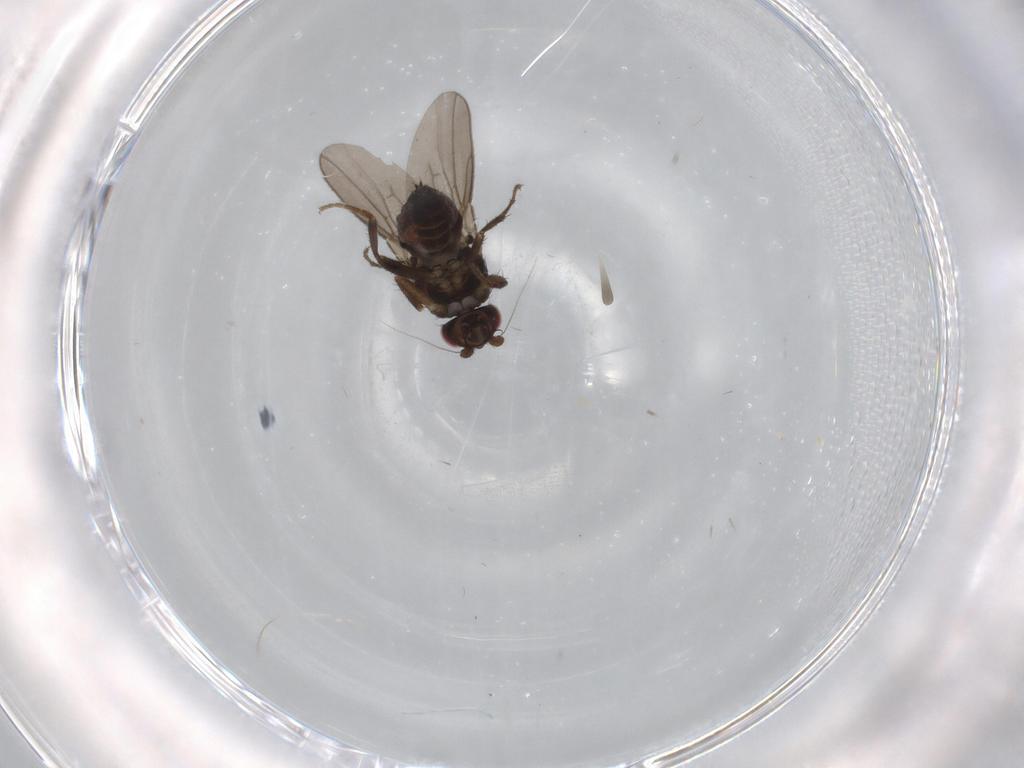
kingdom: Animalia
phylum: Arthropoda
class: Insecta
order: Diptera
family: Sphaeroceridae
